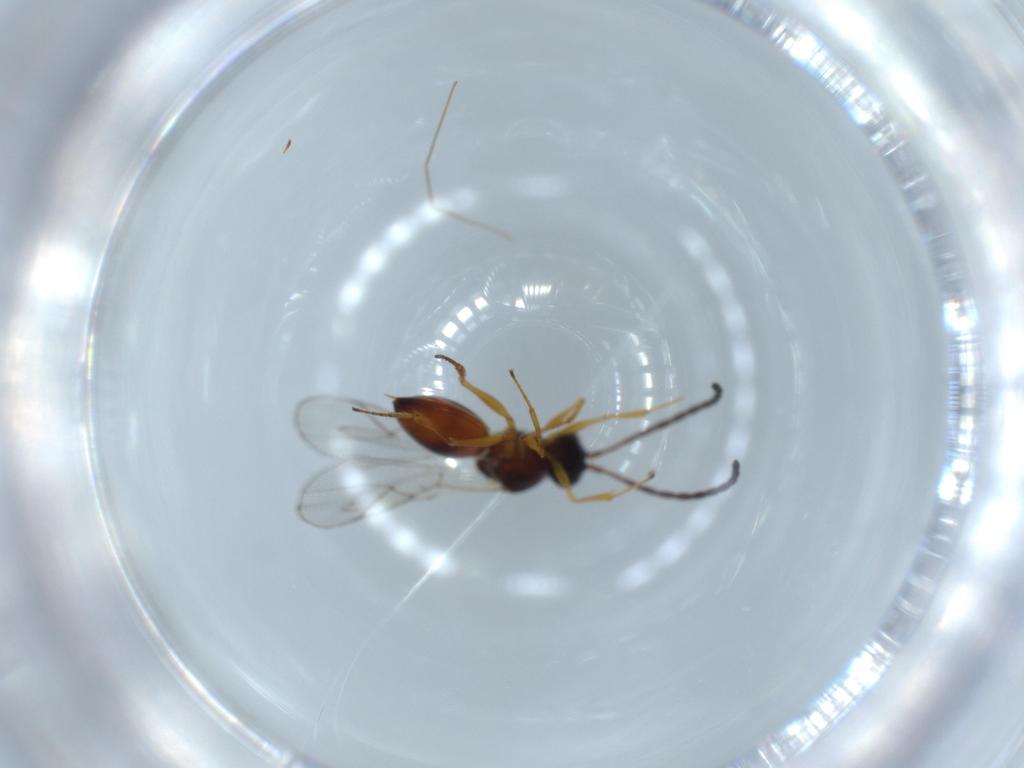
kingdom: Animalia
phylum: Arthropoda
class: Insecta
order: Hymenoptera
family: Figitidae
